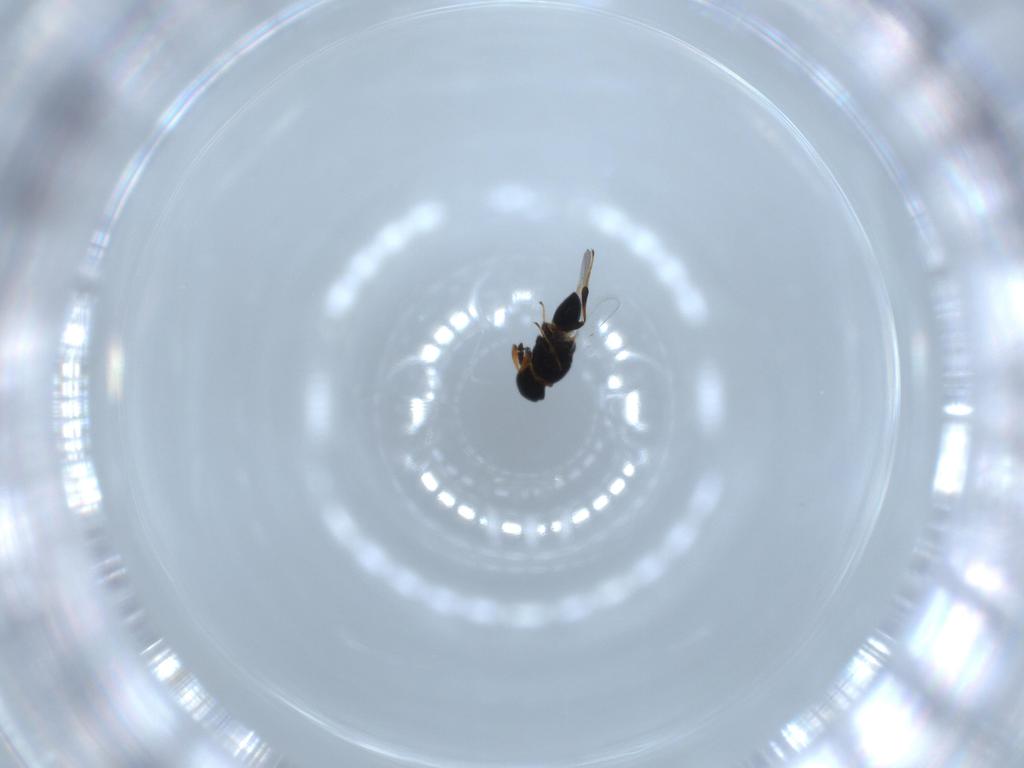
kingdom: Animalia
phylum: Arthropoda
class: Insecta
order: Hymenoptera
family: Platygastridae
